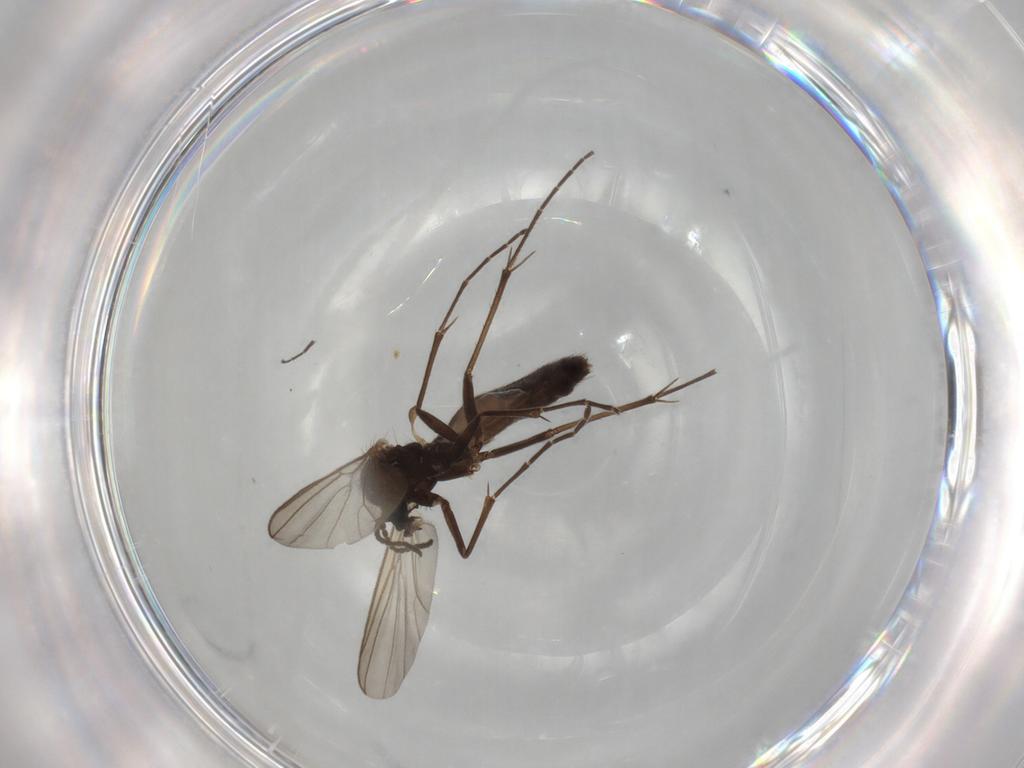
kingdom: Animalia
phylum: Arthropoda
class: Insecta
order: Diptera
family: Mycetophilidae
